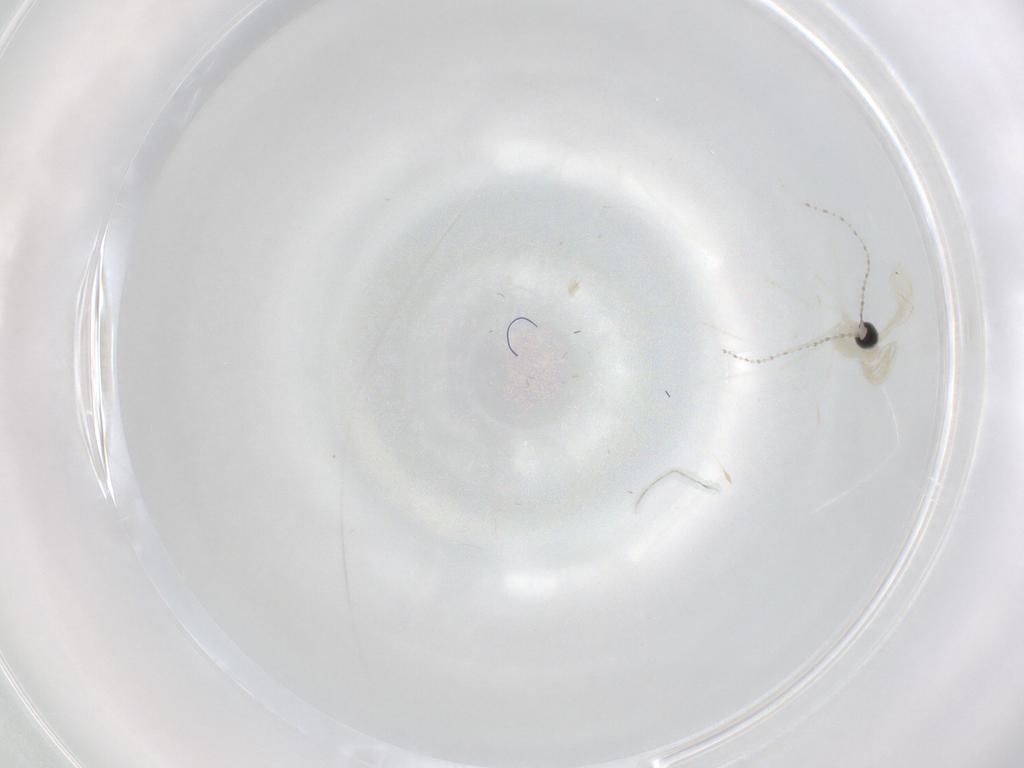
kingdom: Animalia
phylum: Arthropoda
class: Insecta
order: Diptera
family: Cecidomyiidae
